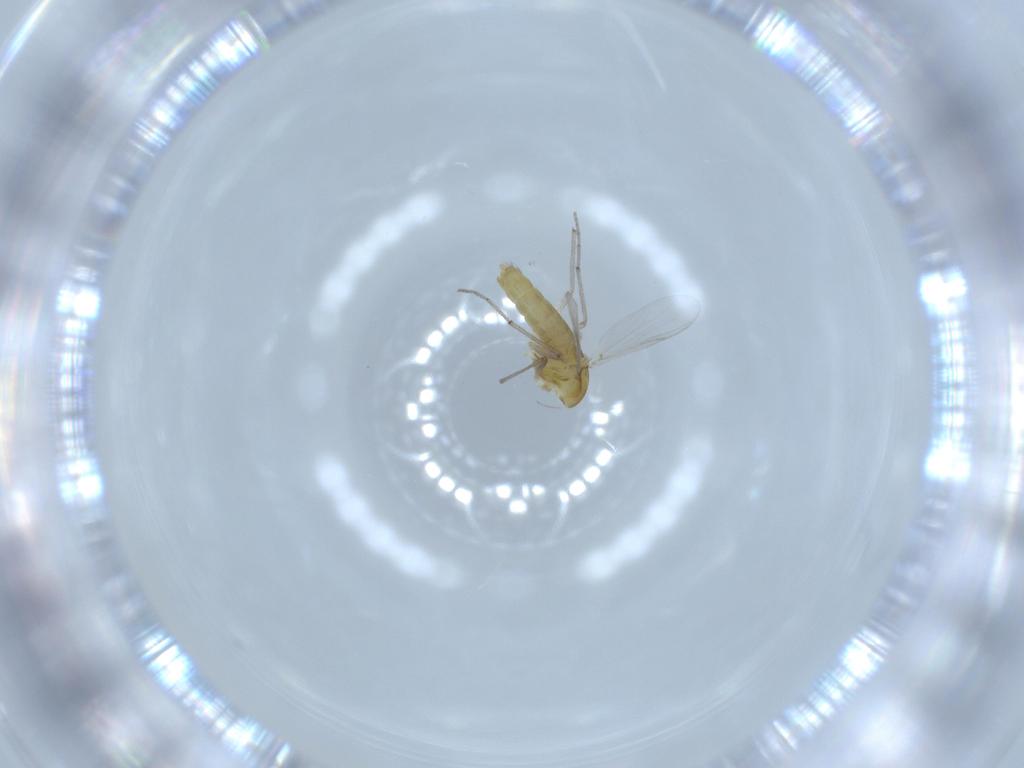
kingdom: Animalia
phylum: Arthropoda
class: Insecta
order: Diptera
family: Chironomidae
